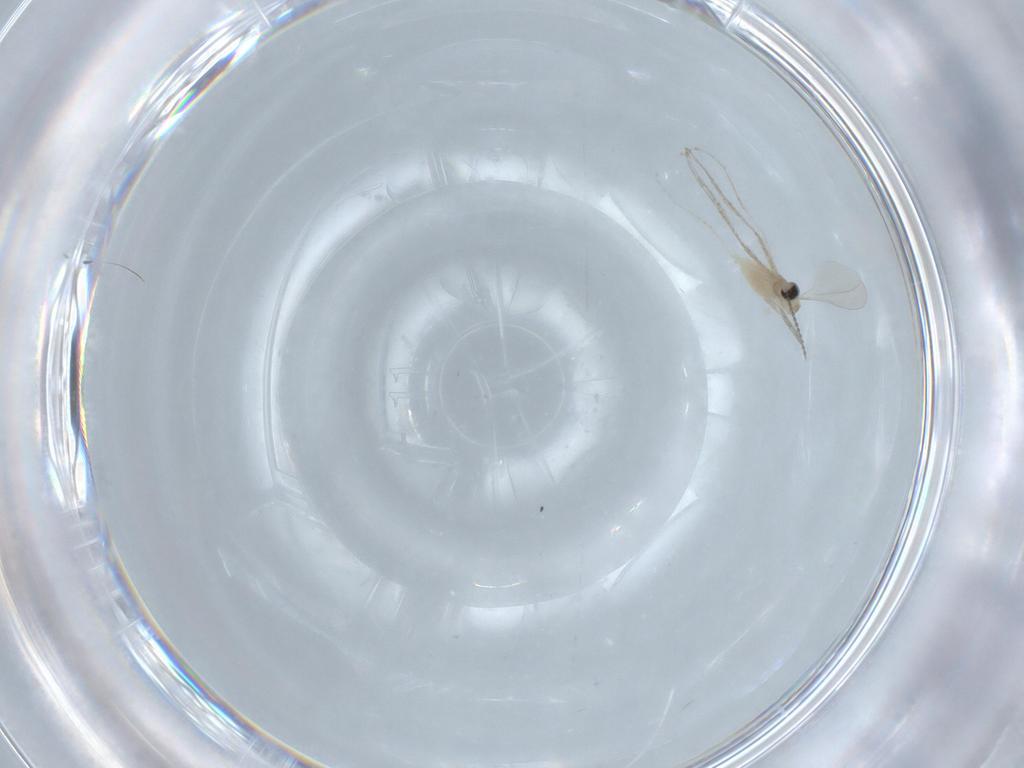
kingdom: Animalia
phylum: Arthropoda
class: Insecta
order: Diptera
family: Cecidomyiidae
